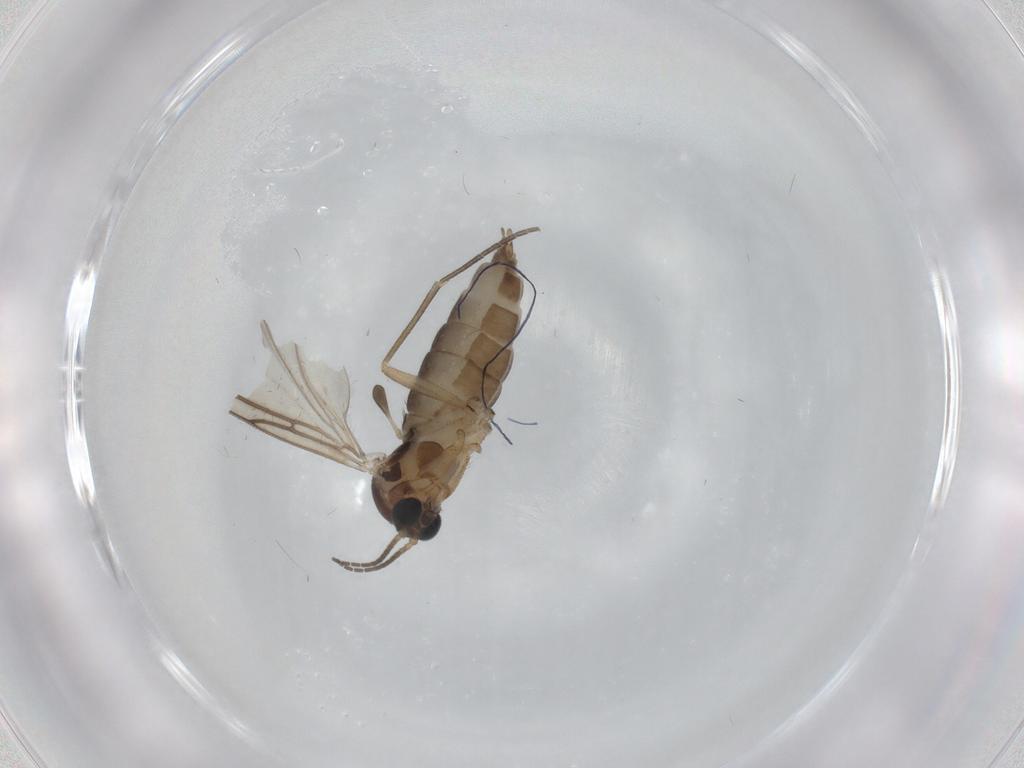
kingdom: Animalia
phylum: Arthropoda
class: Insecta
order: Diptera
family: Sciaridae
